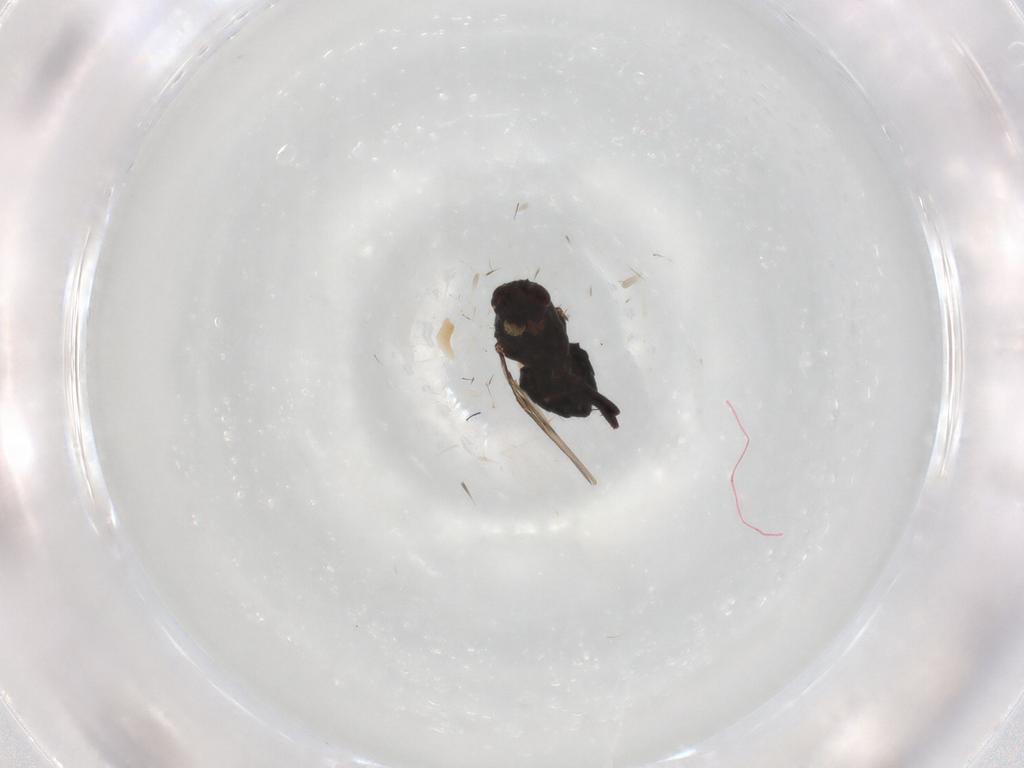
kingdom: Animalia
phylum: Arthropoda
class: Insecta
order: Diptera
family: Sphaeroceridae
